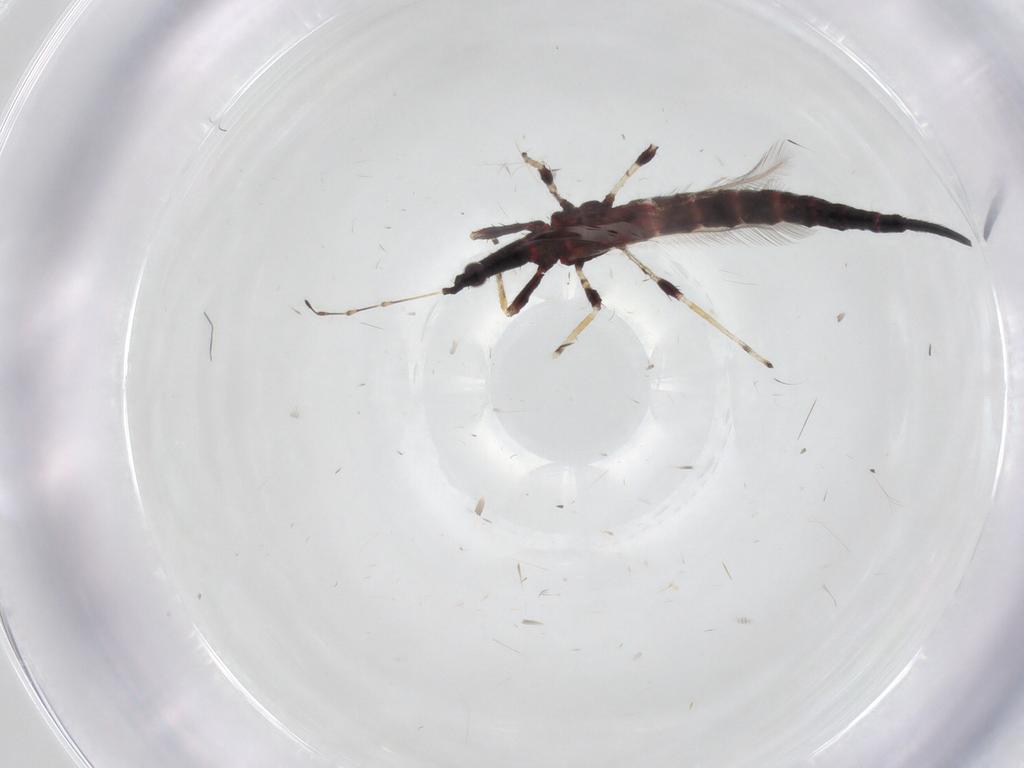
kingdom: Animalia
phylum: Arthropoda
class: Insecta
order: Thysanoptera
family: Phlaeothripidae
